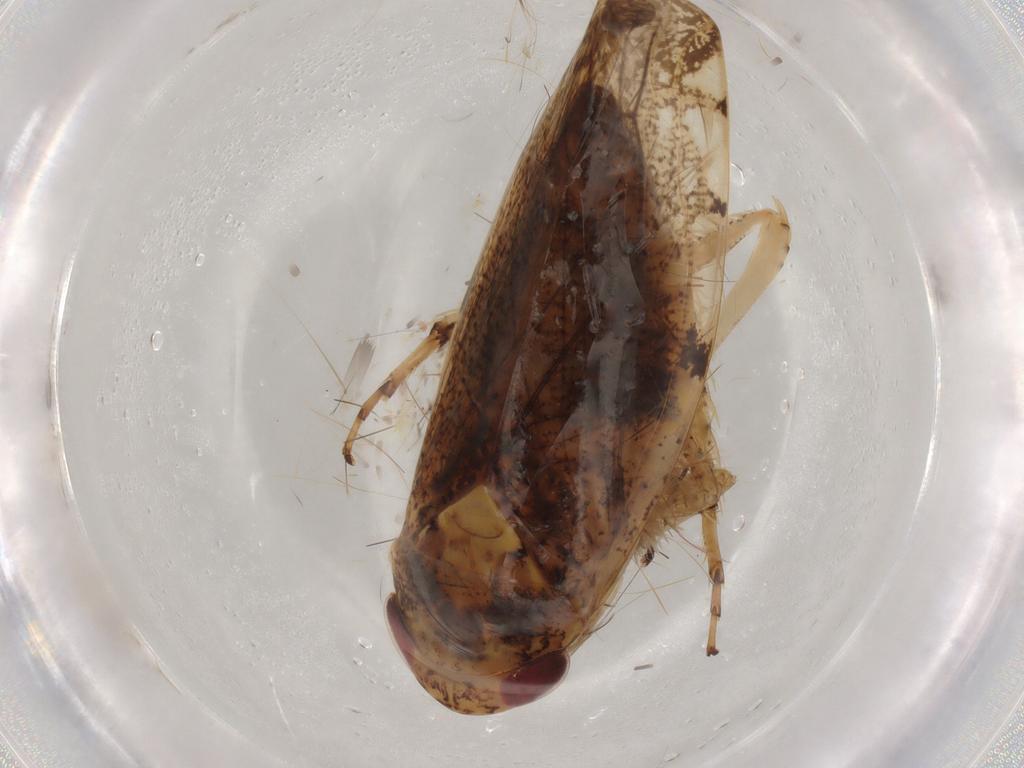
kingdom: Animalia
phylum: Arthropoda
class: Insecta
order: Hemiptera
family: Cicadellidae
